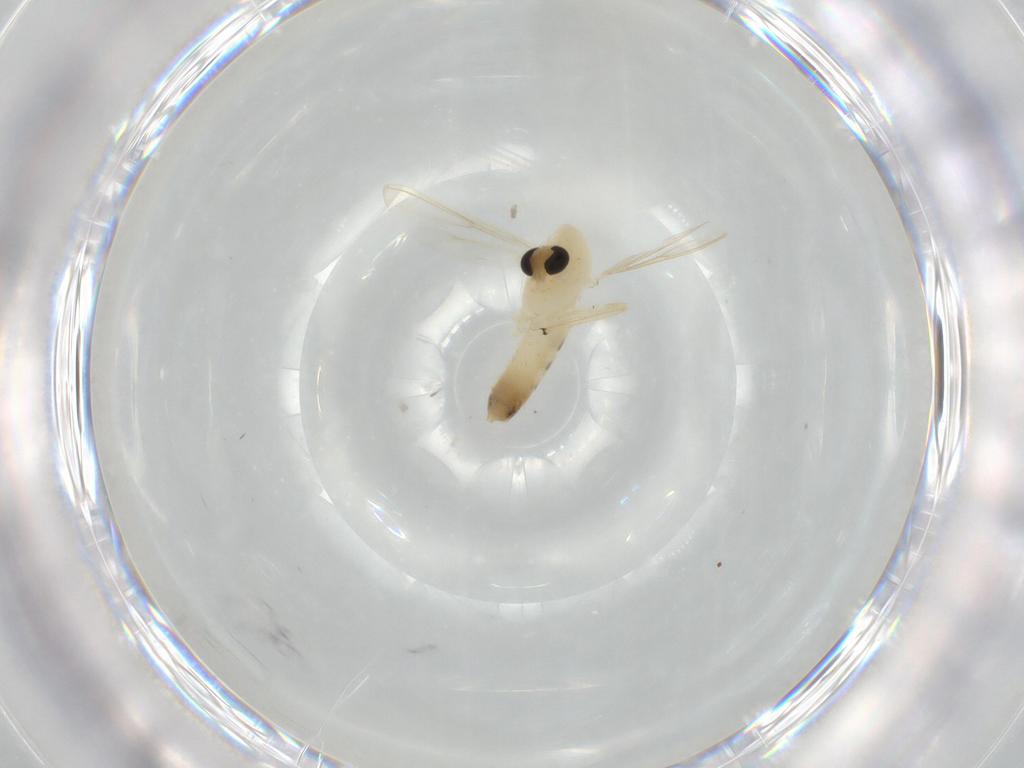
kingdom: Animalia
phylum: Arthropoda
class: Insecta
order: Diptera
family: Chironomidae
